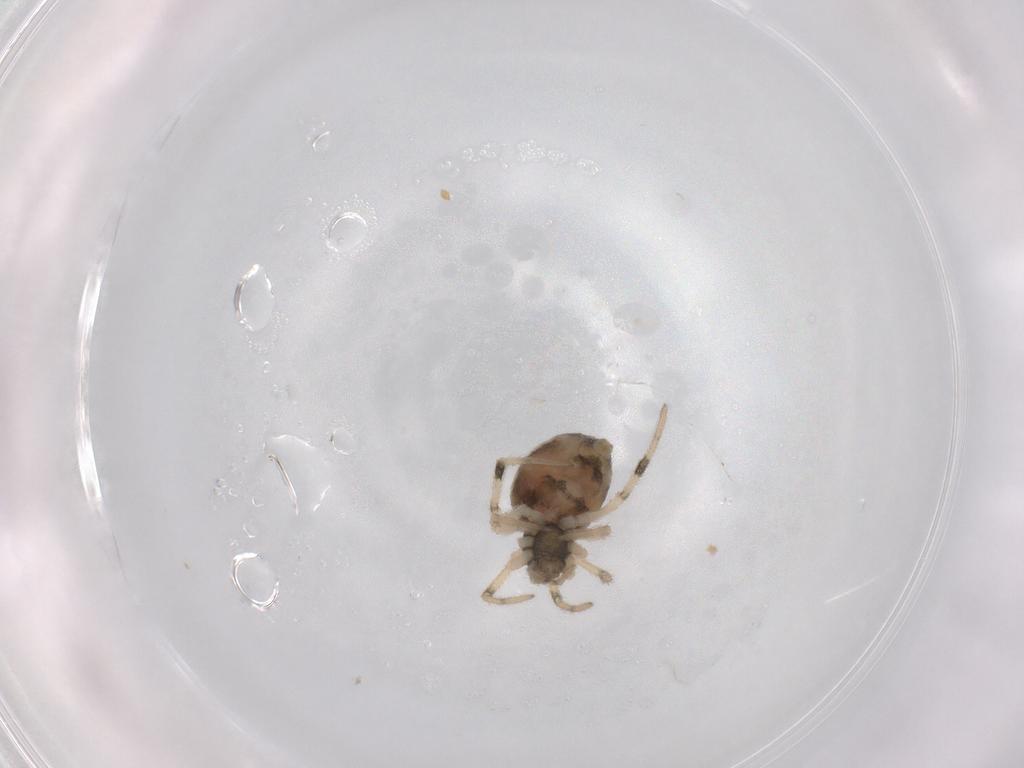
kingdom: Animalia
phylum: Arthropoda
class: Arachnida
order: Araneae
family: Theridiidae
